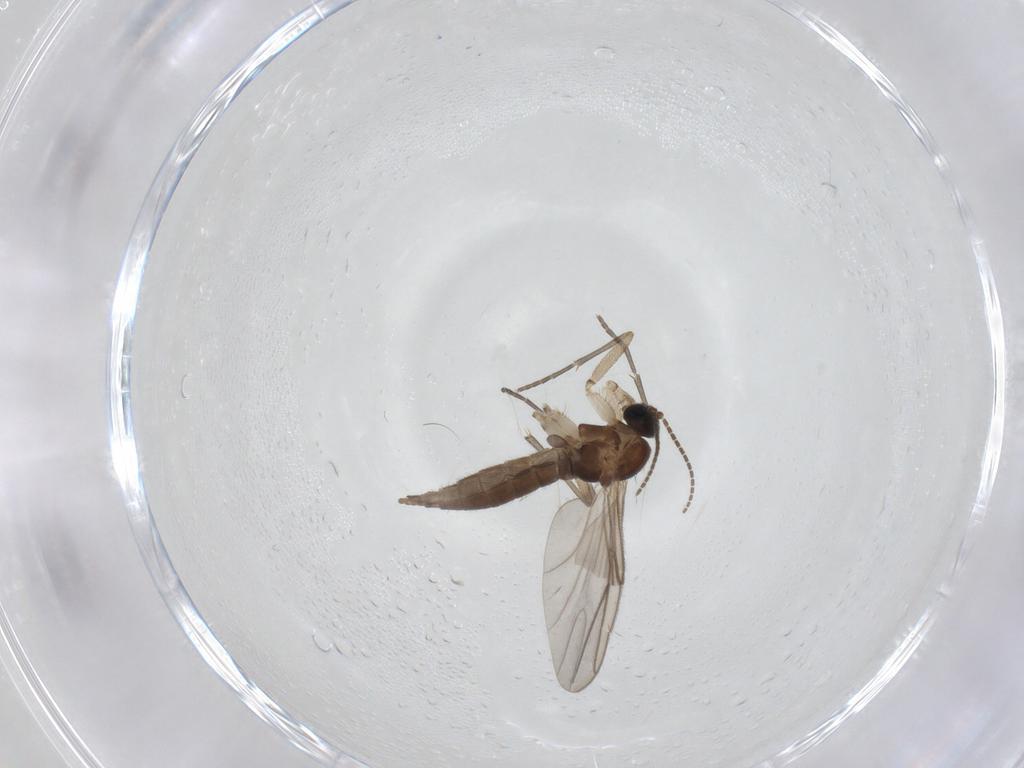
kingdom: Animalia
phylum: Arthropoda
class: Insecta
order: Diptera
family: Sciaridae
